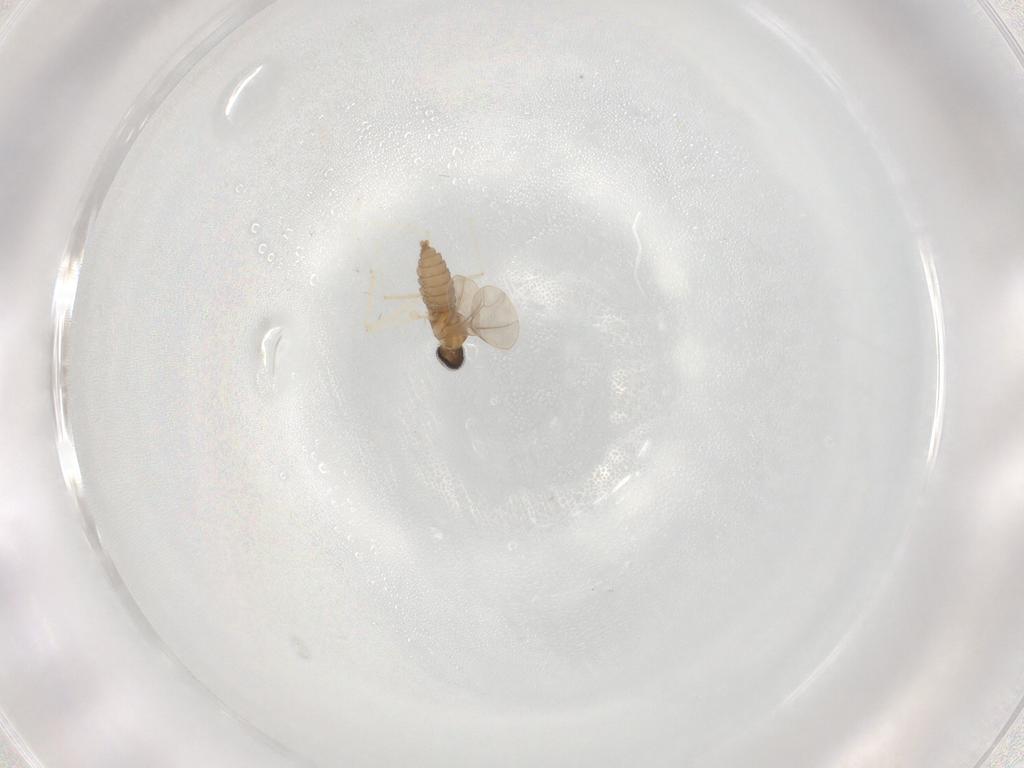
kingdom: Animalia
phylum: Arthropoda
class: Insecta
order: Diptera
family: Cecidomyiidae
